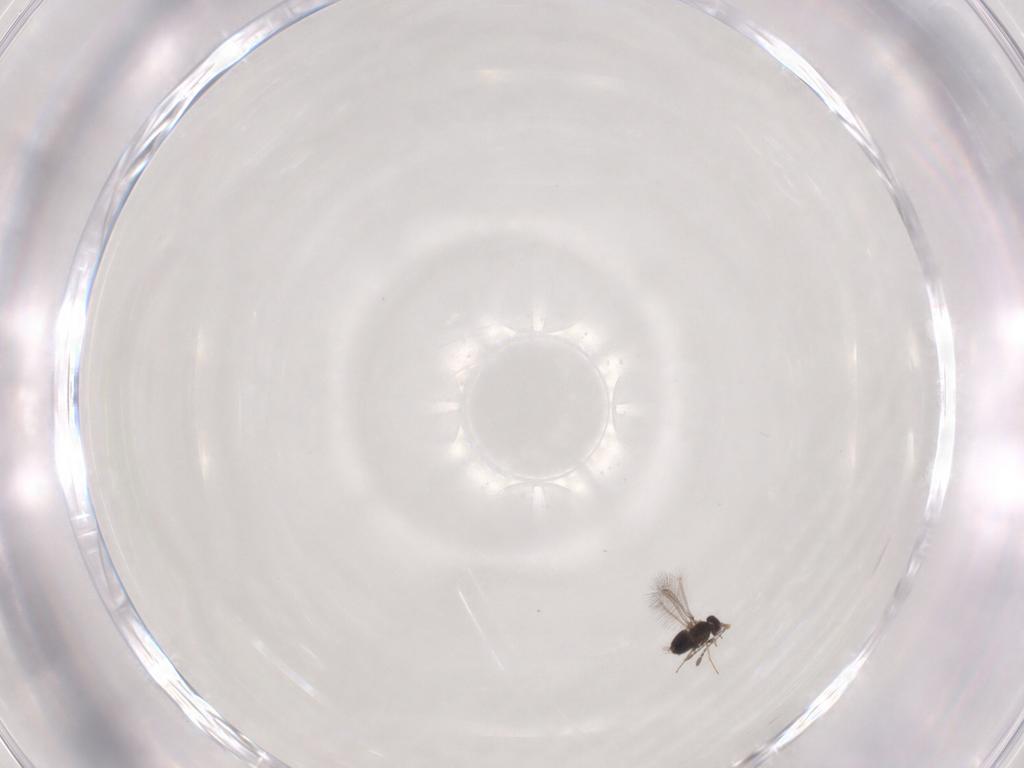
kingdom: Animalia
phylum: Arthropoda
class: Insecta
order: Hymenoptera
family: Mymaridae
